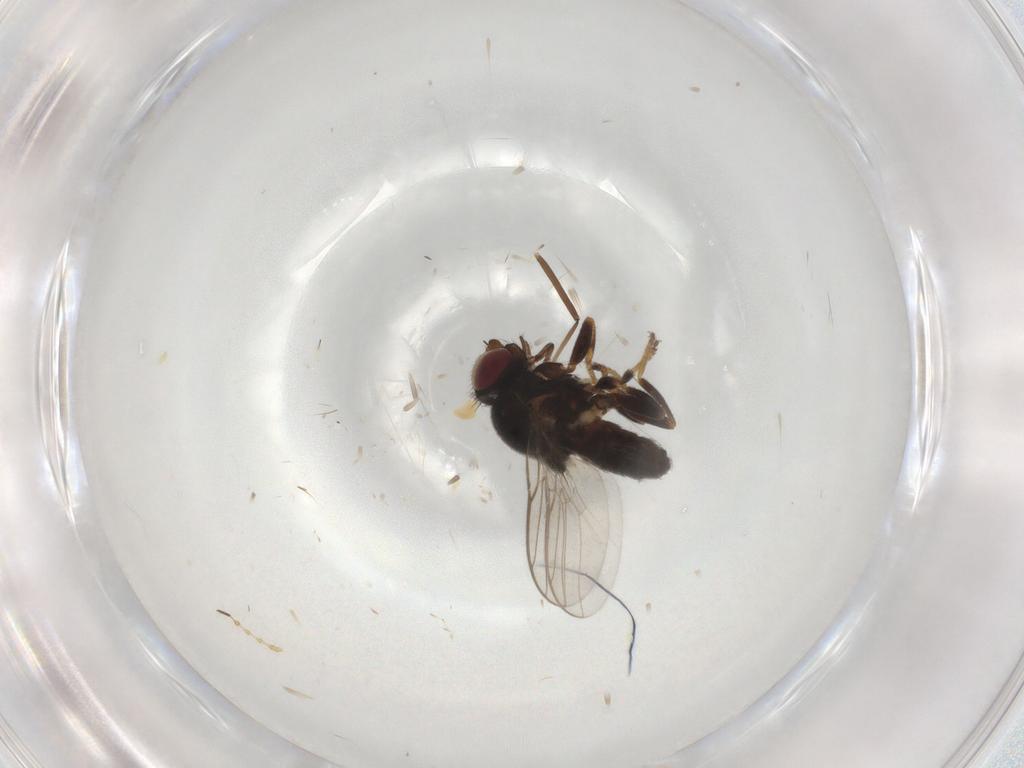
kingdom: Animalia
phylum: Arthropoda
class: Insecta
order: Diptera
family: Chloropidae
